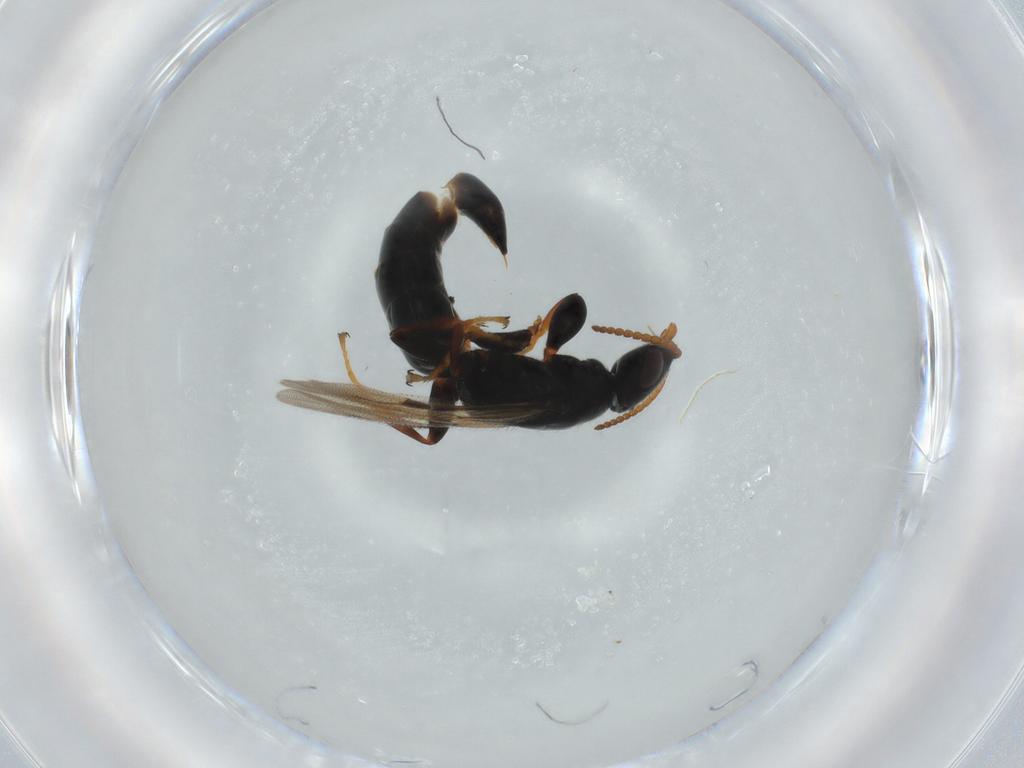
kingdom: Animalia
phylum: Arthropoda
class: Insecta
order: Hymenoptera
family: Bethylidae
